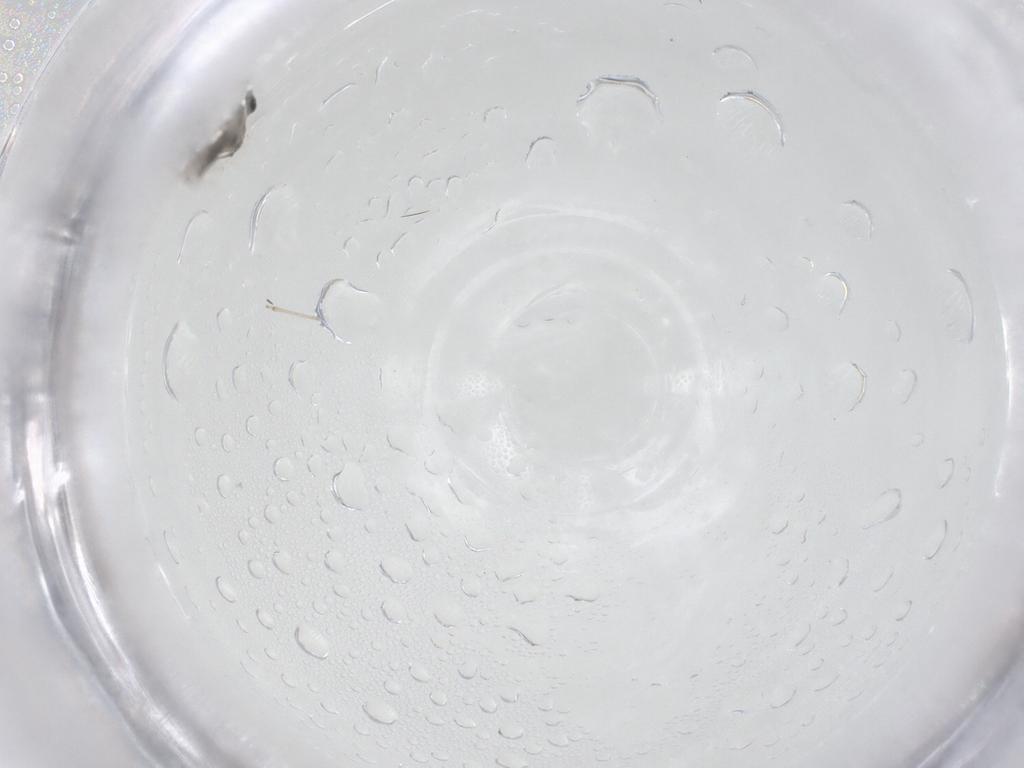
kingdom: Animalia
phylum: Arthropoda
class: Insecta
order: Diptera
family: Cecidomyiidae
